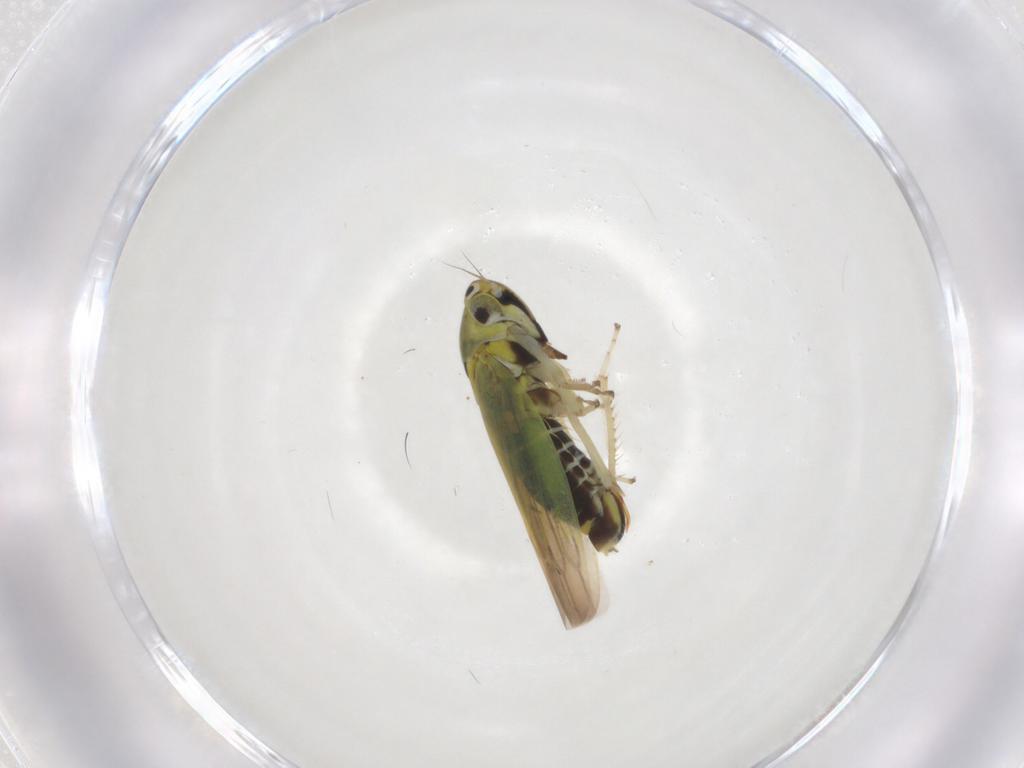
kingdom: Animalia
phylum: Arthropoda
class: Insecta
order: Hemiptera
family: Cicadellidae
